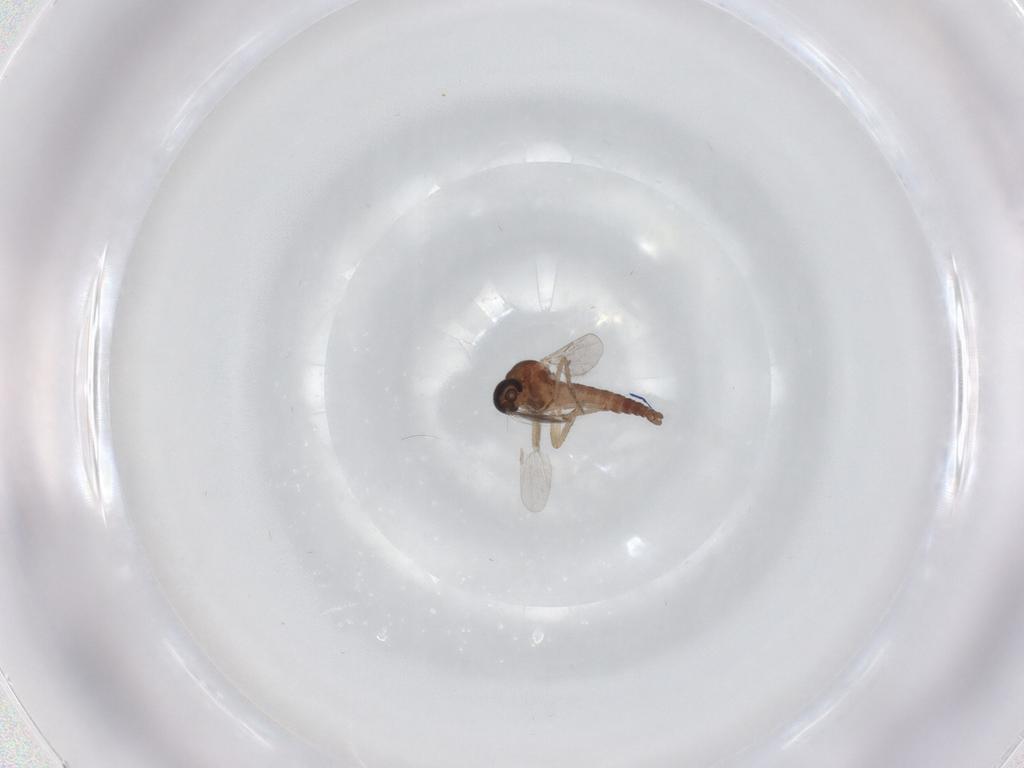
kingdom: Animalia
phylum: Arthropoda
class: Insecta
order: Diptera
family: Ceratopogonidae
